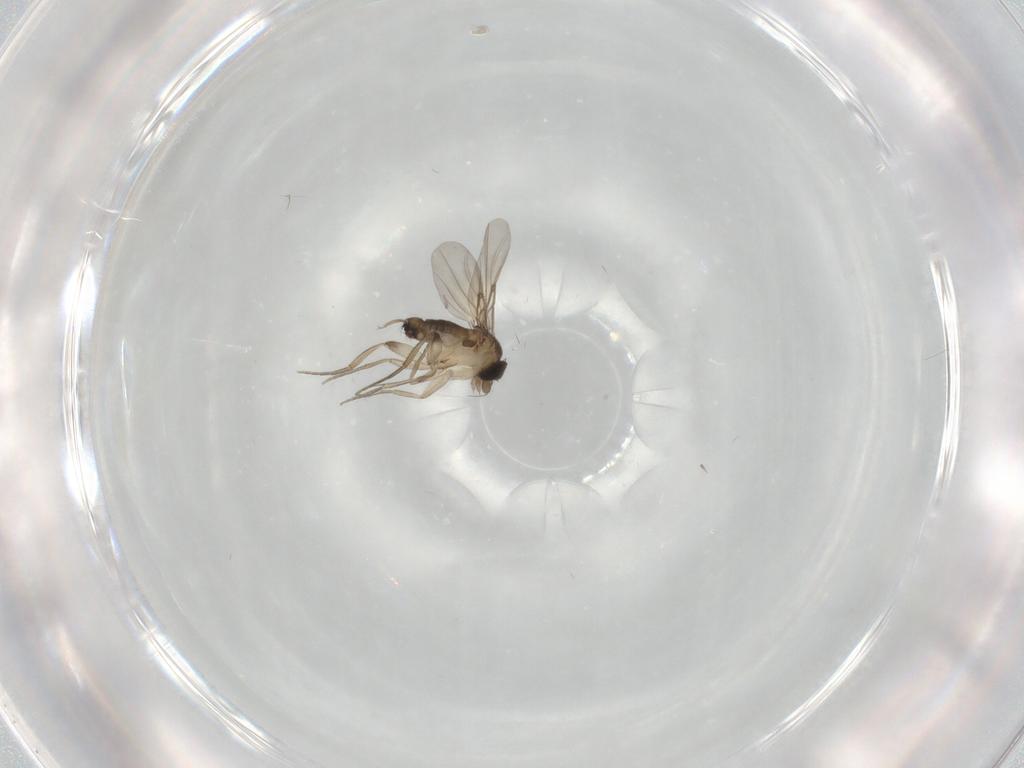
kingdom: Animalia
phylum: Arthropoda
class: Insecta
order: Diptera
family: Phoridae
